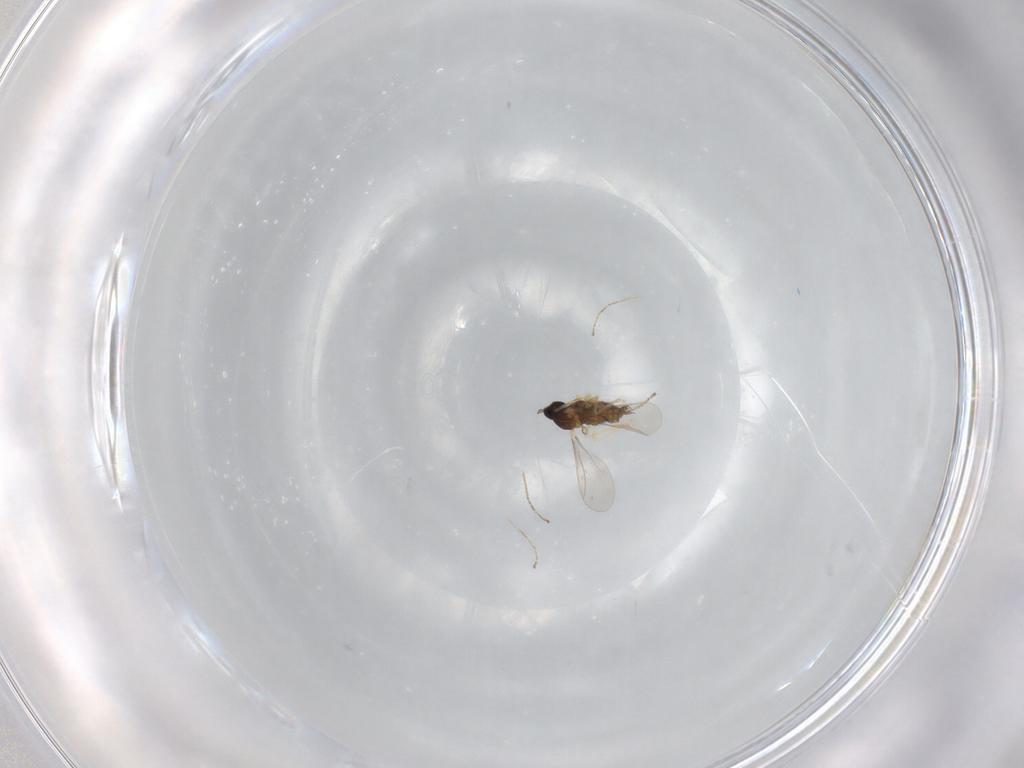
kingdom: Animalia
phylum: Arthropoda
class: Insecta
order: Diptera
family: Cecidomyiidae
